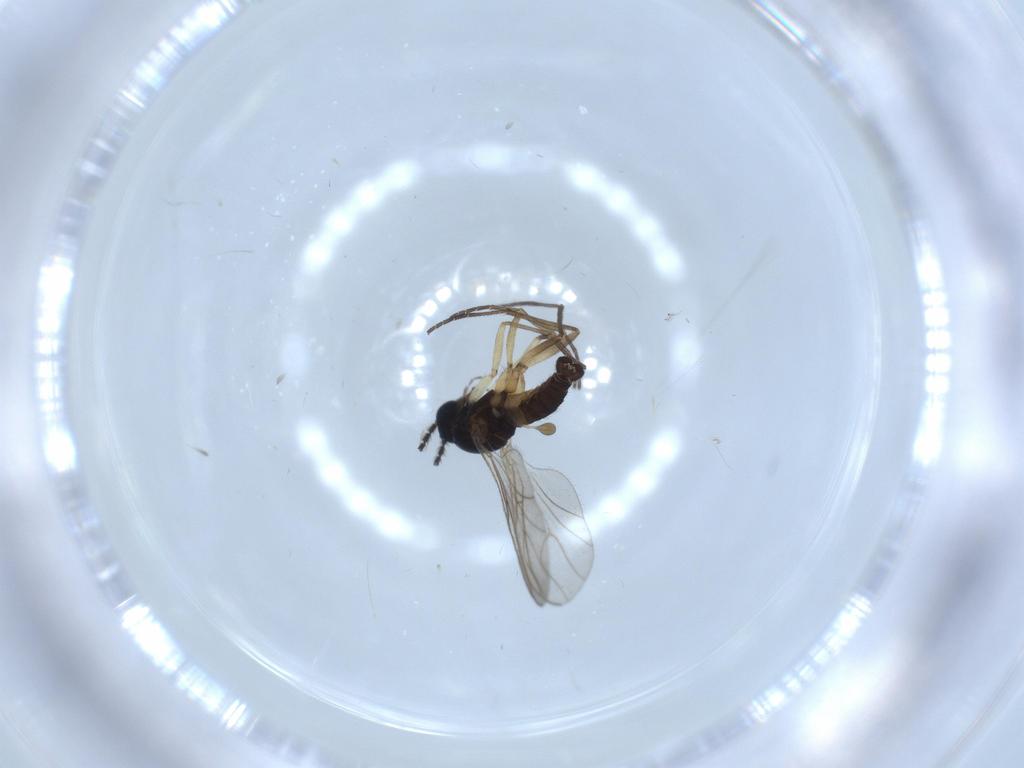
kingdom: Animalia
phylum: Arthropoda
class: Insecta
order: Diptera
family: Sciaridae
